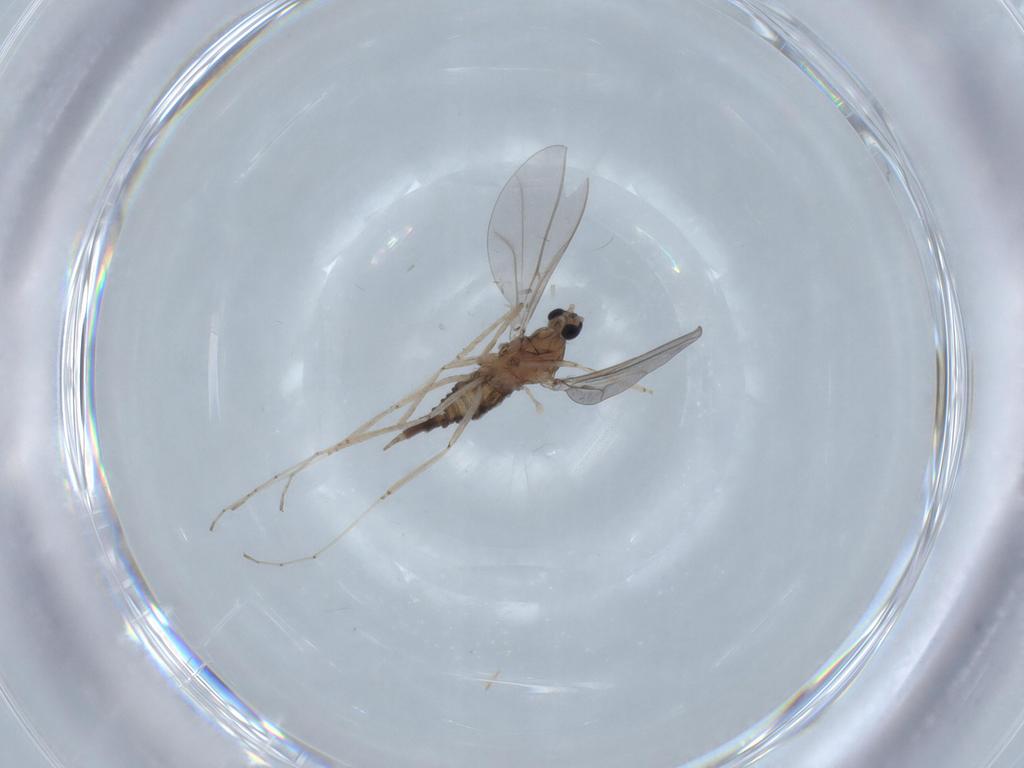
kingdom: Animalia
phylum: Arthropoda
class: Insecta
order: Diptera
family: Cecidomyiidae
